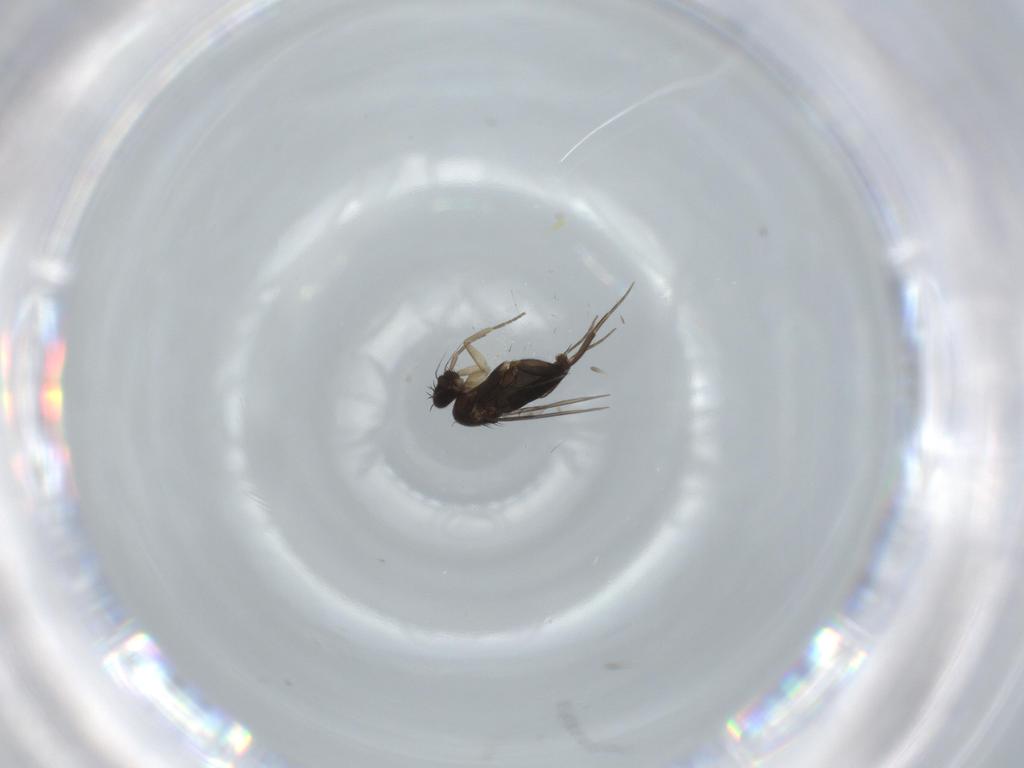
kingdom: Animalia
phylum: Arthropoda
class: Insecta
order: Diptera
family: Phoridae
